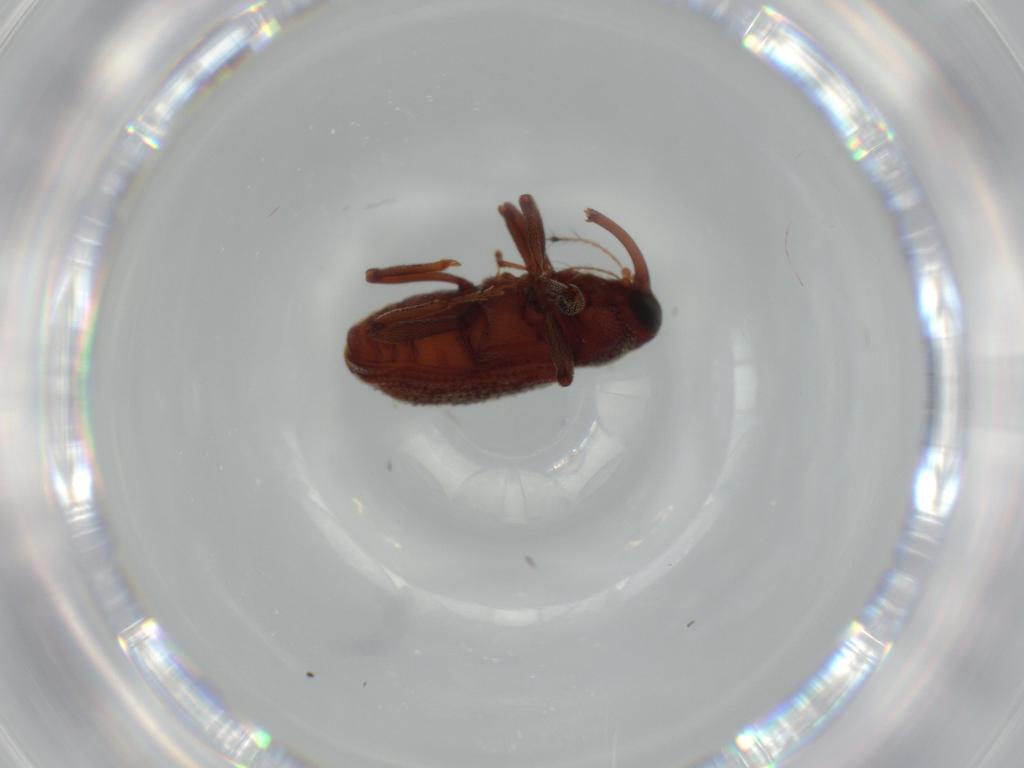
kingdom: Animalia
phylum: Arthropoda
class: Insecta
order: Coleoptera
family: Curculionidae
